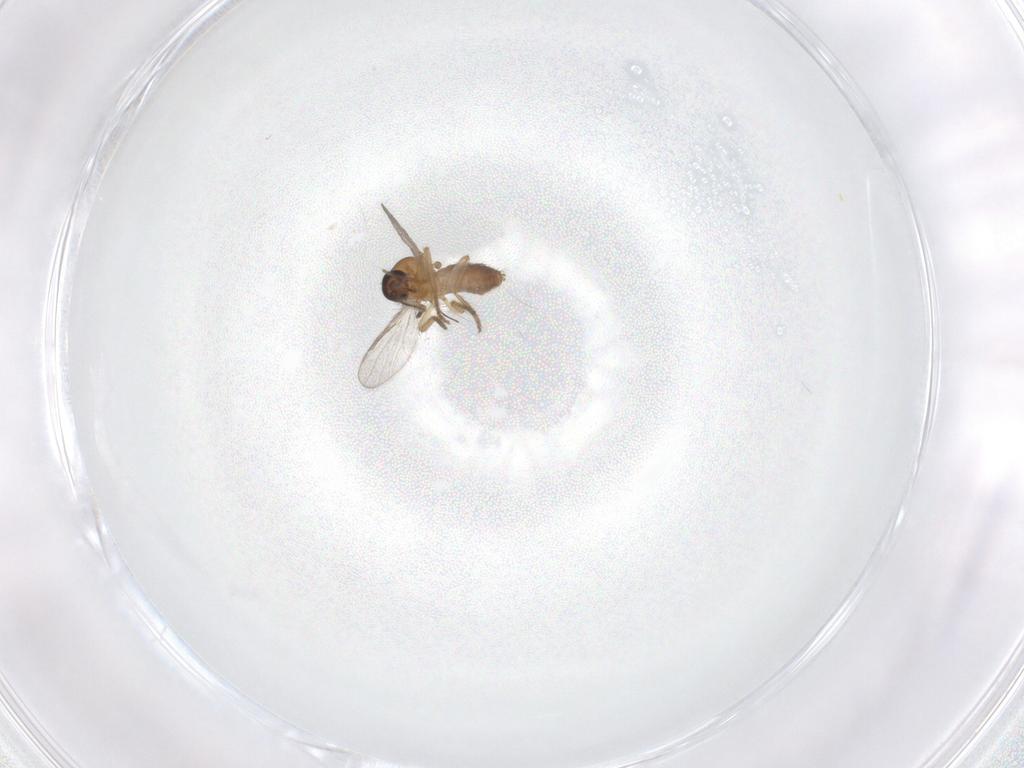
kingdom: Animalia
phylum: Arthropoda
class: Insecta
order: Diptera
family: Chironomidae
